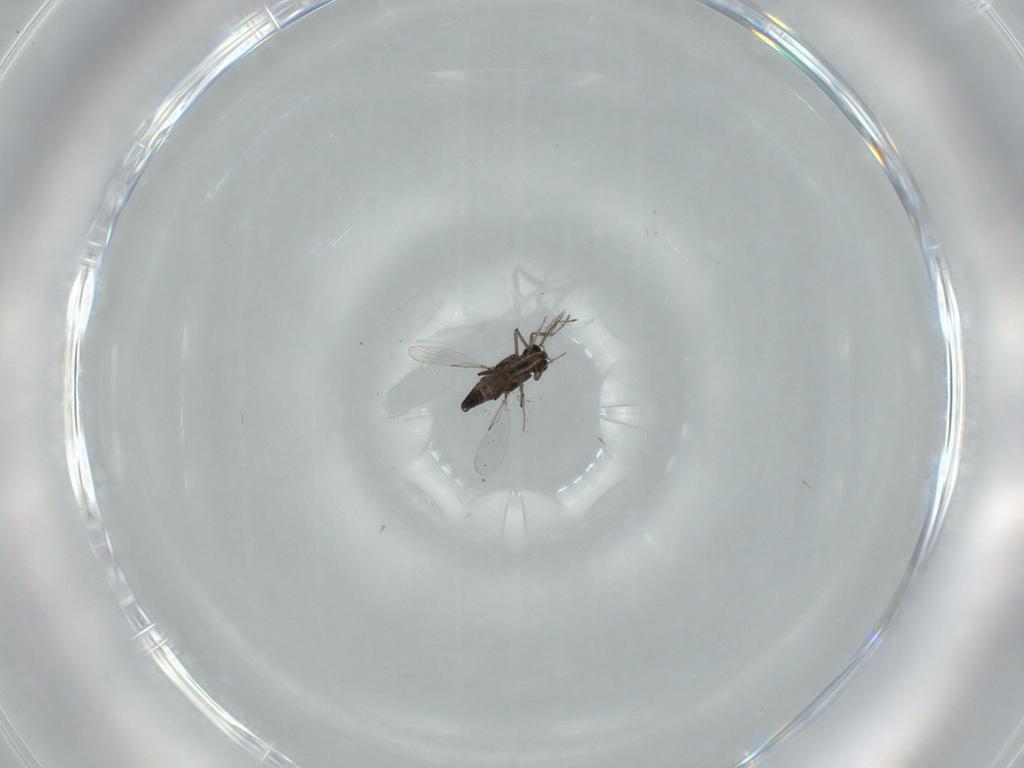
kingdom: Animalia
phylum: Arthropoda
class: Insecta
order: Diptera
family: Ceratopogonidae
